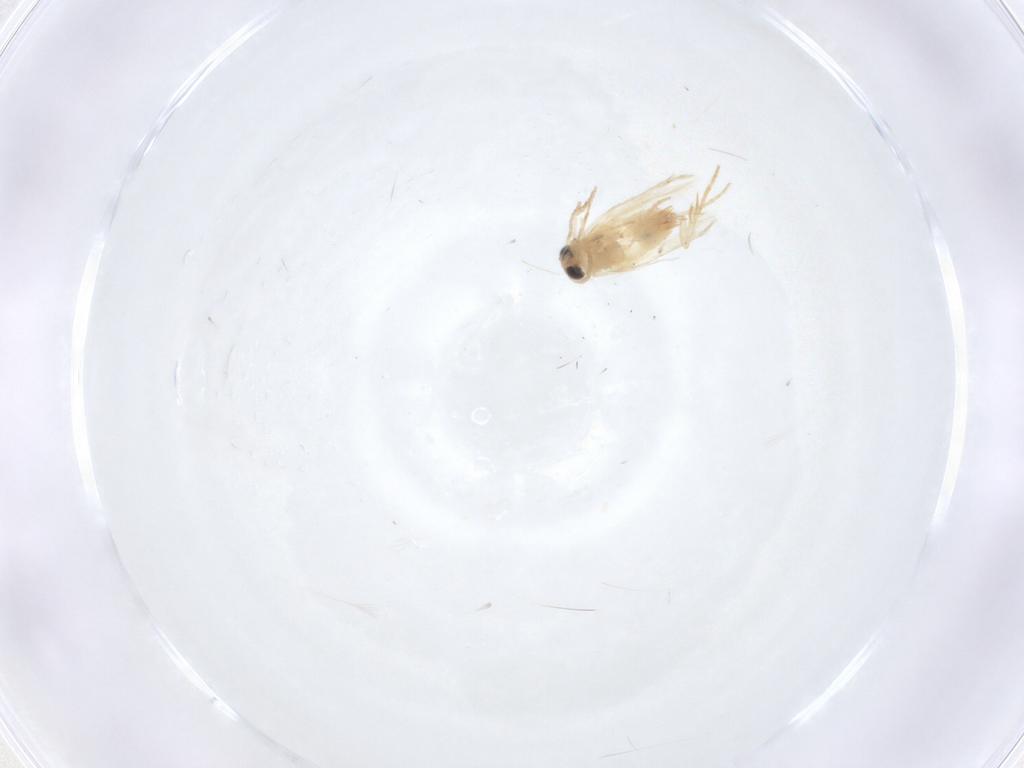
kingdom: Animalia
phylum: Arthropoda
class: Insecta
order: Lepidoptera
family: Crambidae
